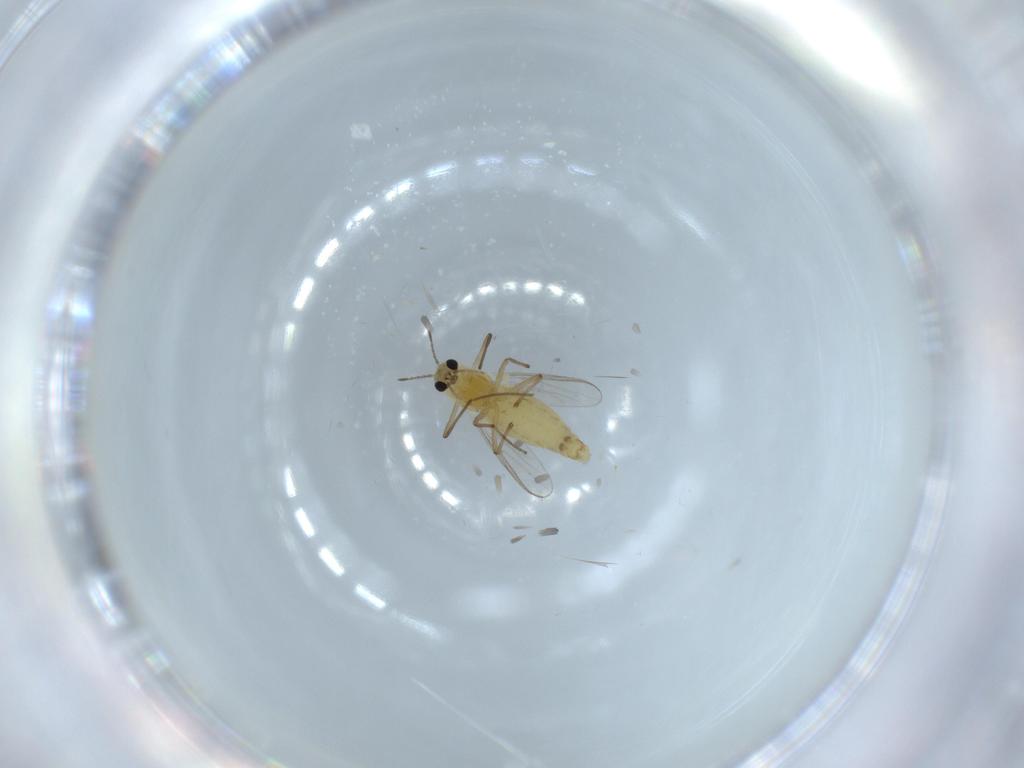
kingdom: Animalia
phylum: Arthropoda
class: Insecta
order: Diptera
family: Chironomidae
